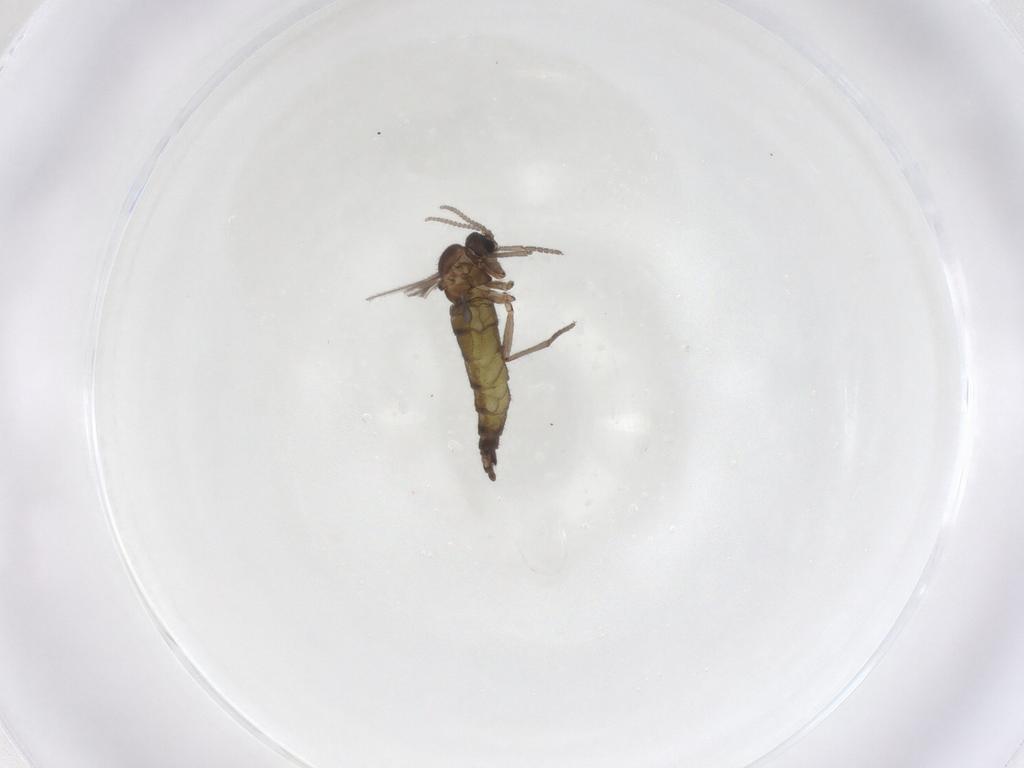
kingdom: Animalia
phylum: Arthropoda
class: Insecta
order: Diptera
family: Sciaridae
